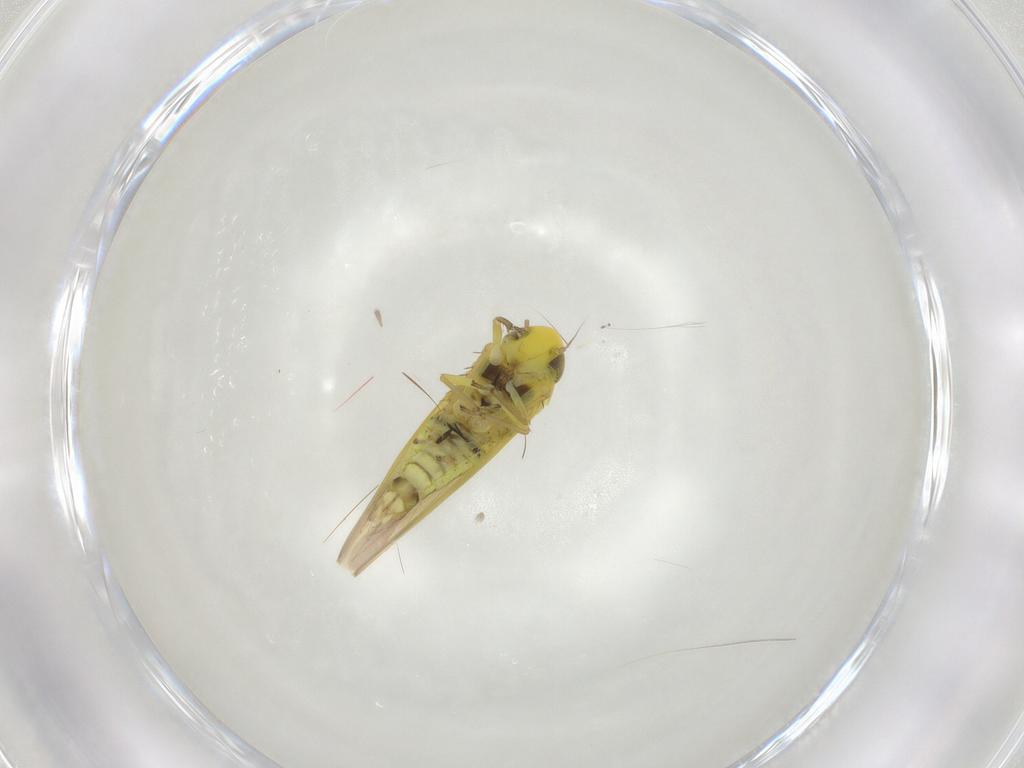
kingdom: Animalia
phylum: Arthropoda
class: Insecta
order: Hemiptera
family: Cicadellidae
